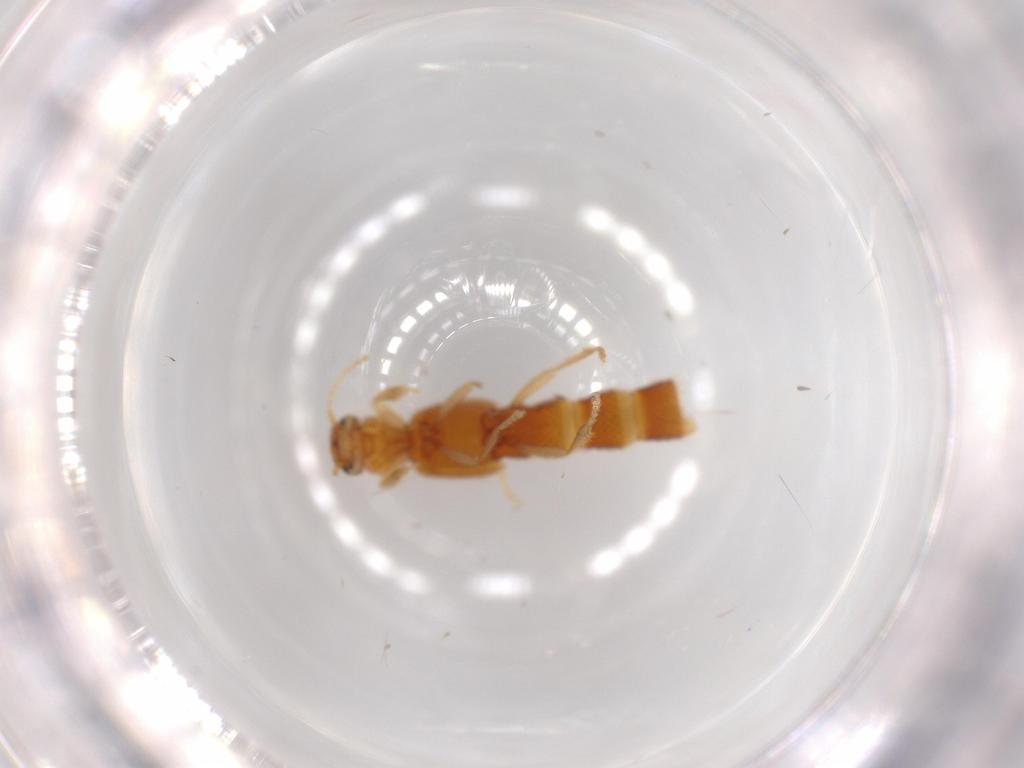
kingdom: Animalia
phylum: Arthropoda
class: Insecta
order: Coleoptera
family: Staphylinidae
